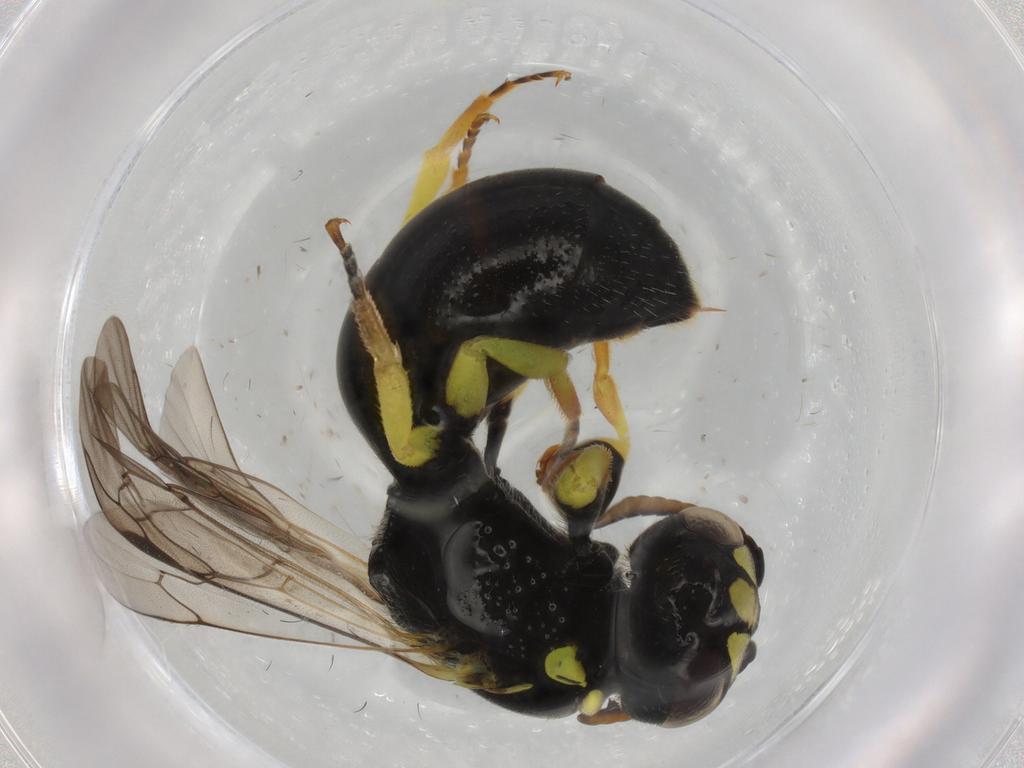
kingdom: Animalia
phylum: Arthropoda
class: Insecta
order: Hymenoptera
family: Colletidae
